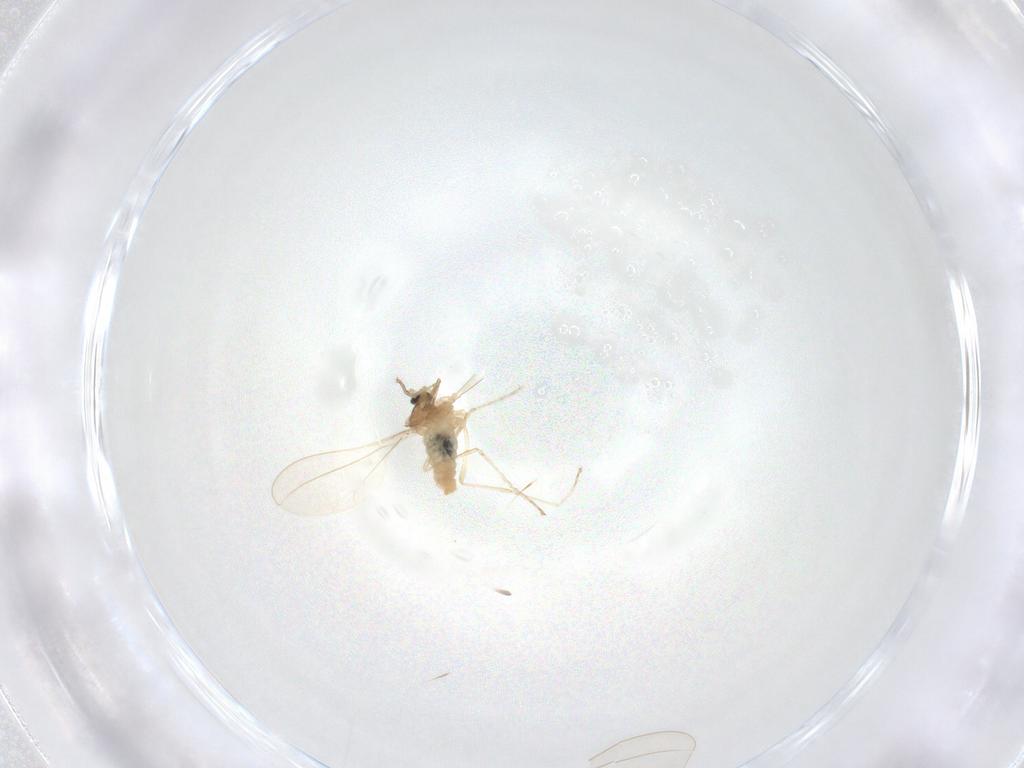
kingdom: Animalia
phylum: Arthropoda
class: Insecta
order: Diptera
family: Cecidomyiidae
